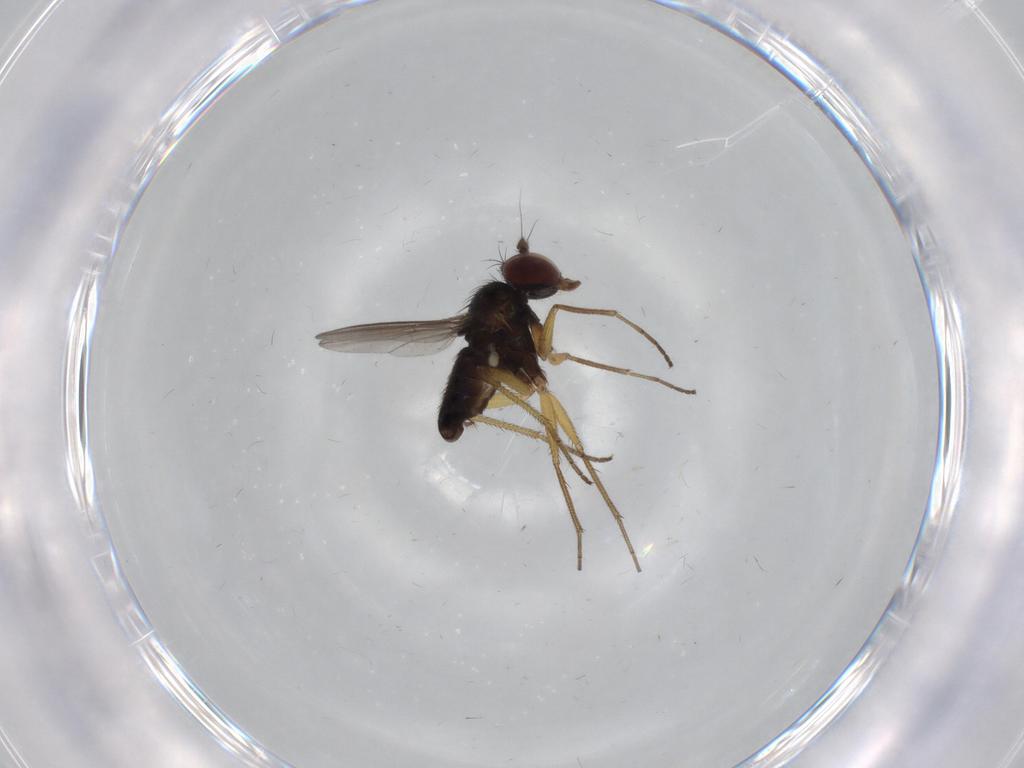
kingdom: Animalia
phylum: Arthropoda
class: Insecta
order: Diptera
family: Dolichopodidae
